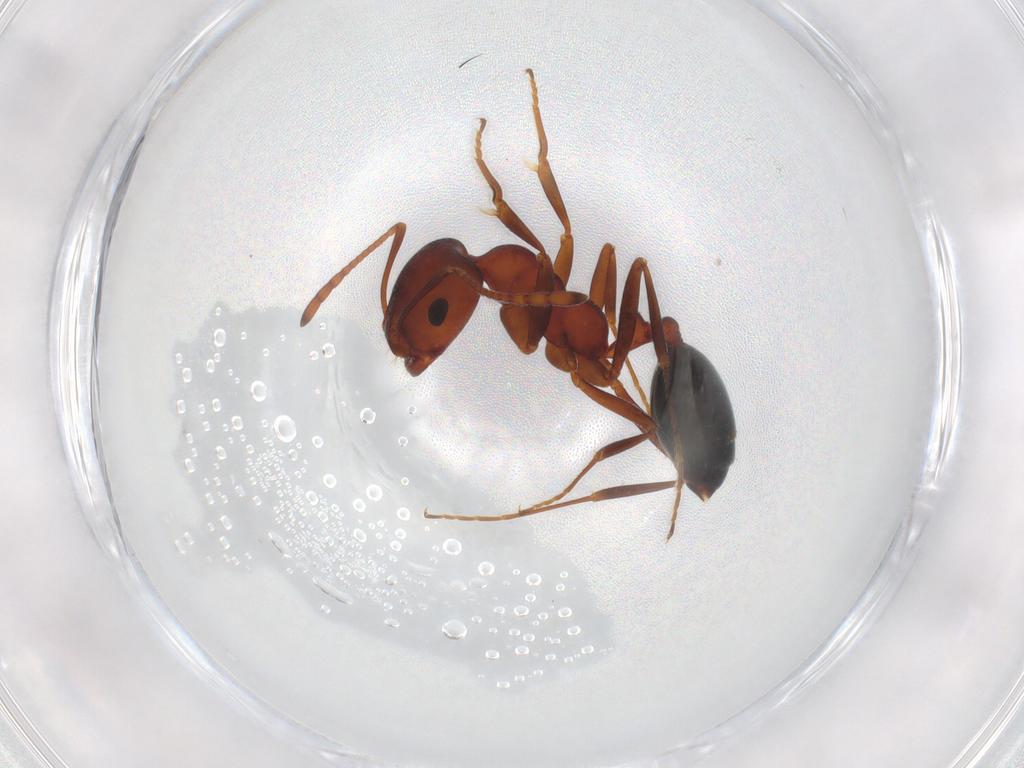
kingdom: Animalia
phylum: Arthropoda
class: Insecta
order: Hymenoptera
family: Formicidae
